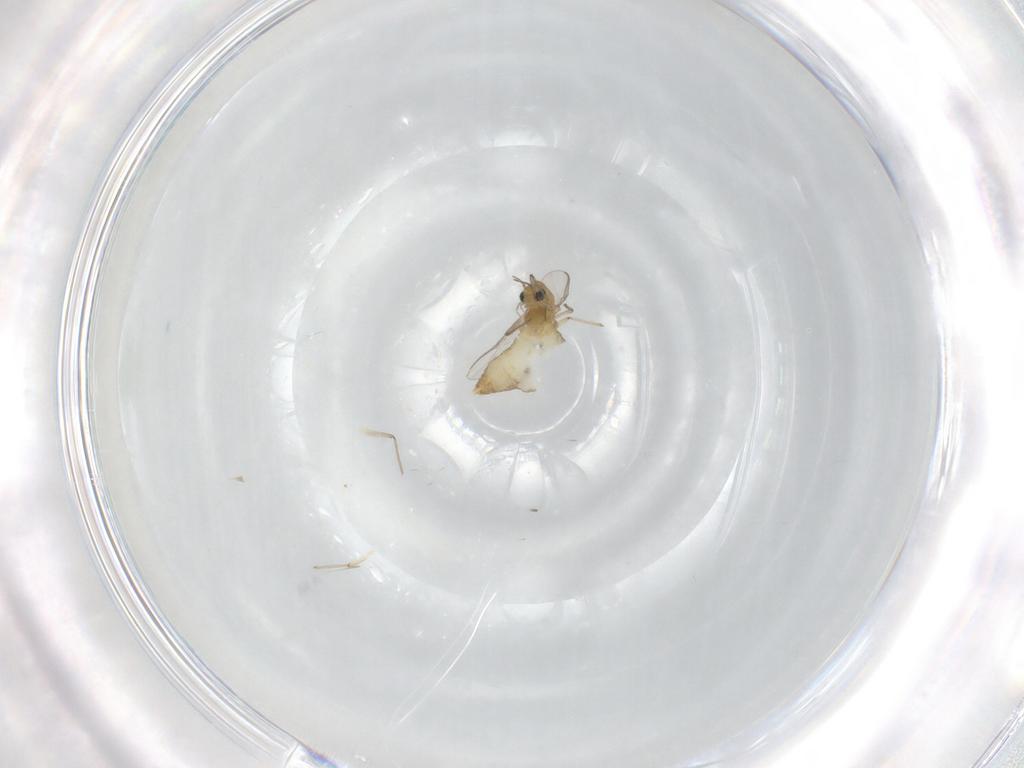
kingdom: Animalia
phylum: Arthropoda
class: Insecta
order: Diptera
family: Chironomidae
